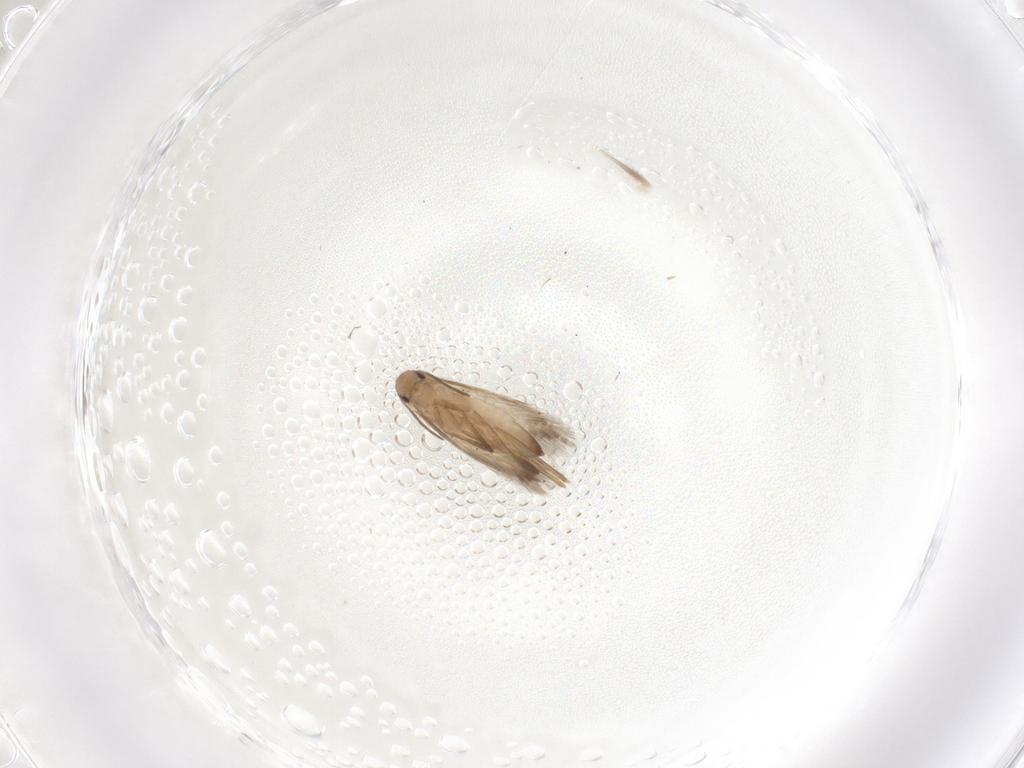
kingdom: Animalia
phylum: Arthropoda
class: Insecta
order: Lepidoptera
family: Heliozelidae
